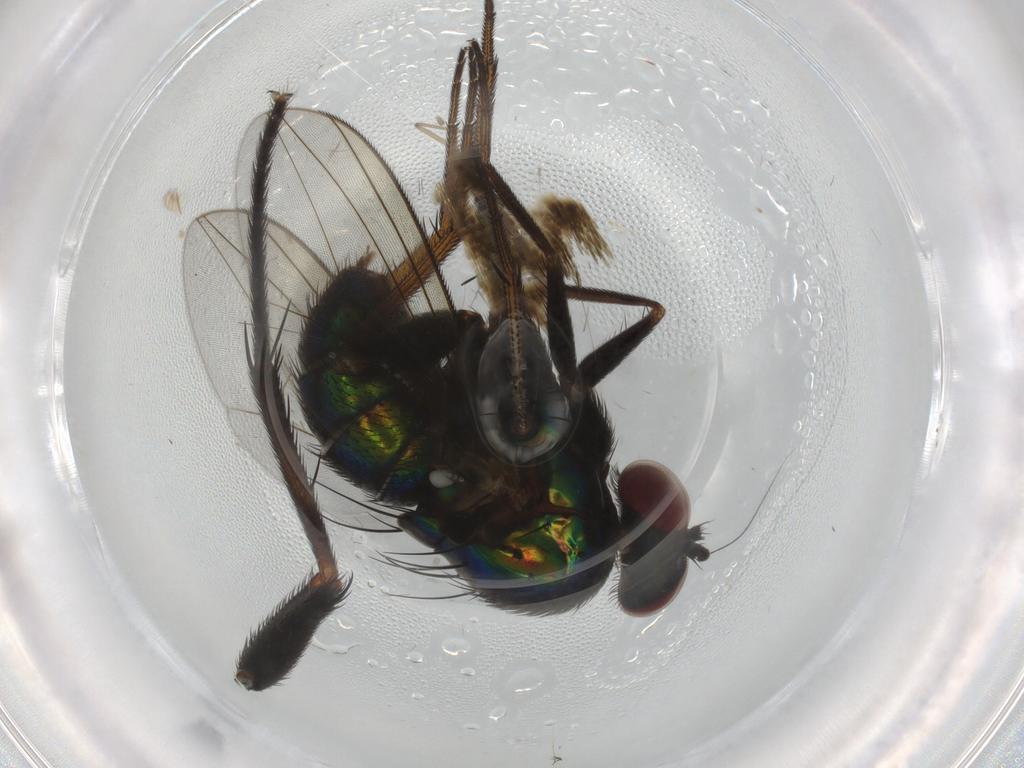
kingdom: Animalia
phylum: Arthropoda
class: Insecta
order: Diptera
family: Muscidae
